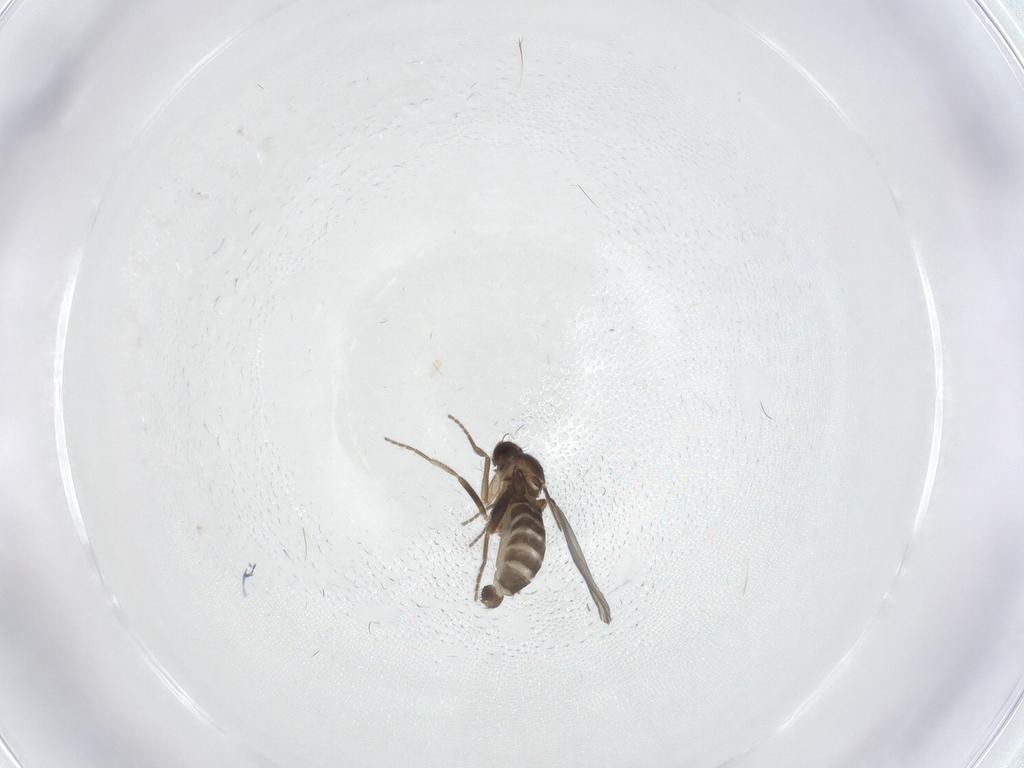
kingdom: Animalia
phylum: Arthropoda
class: Insecta
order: Diptera
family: Phoridae
